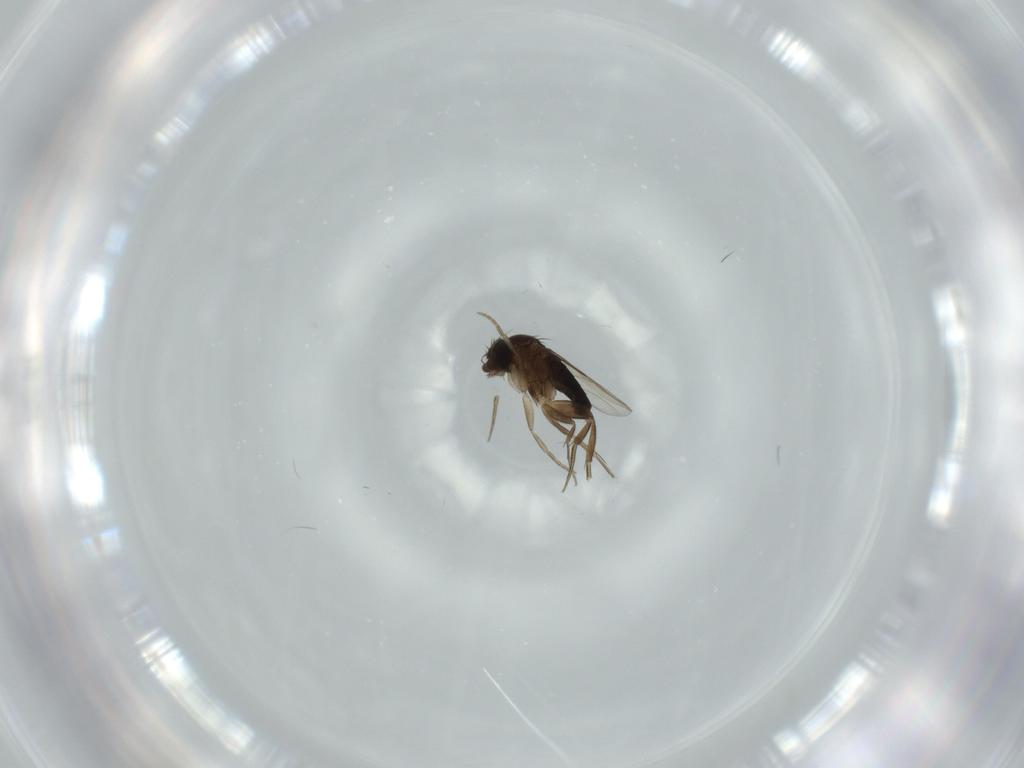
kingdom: Animalia
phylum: Arthropoda
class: Insecta
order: Diptera
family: Phoridae
